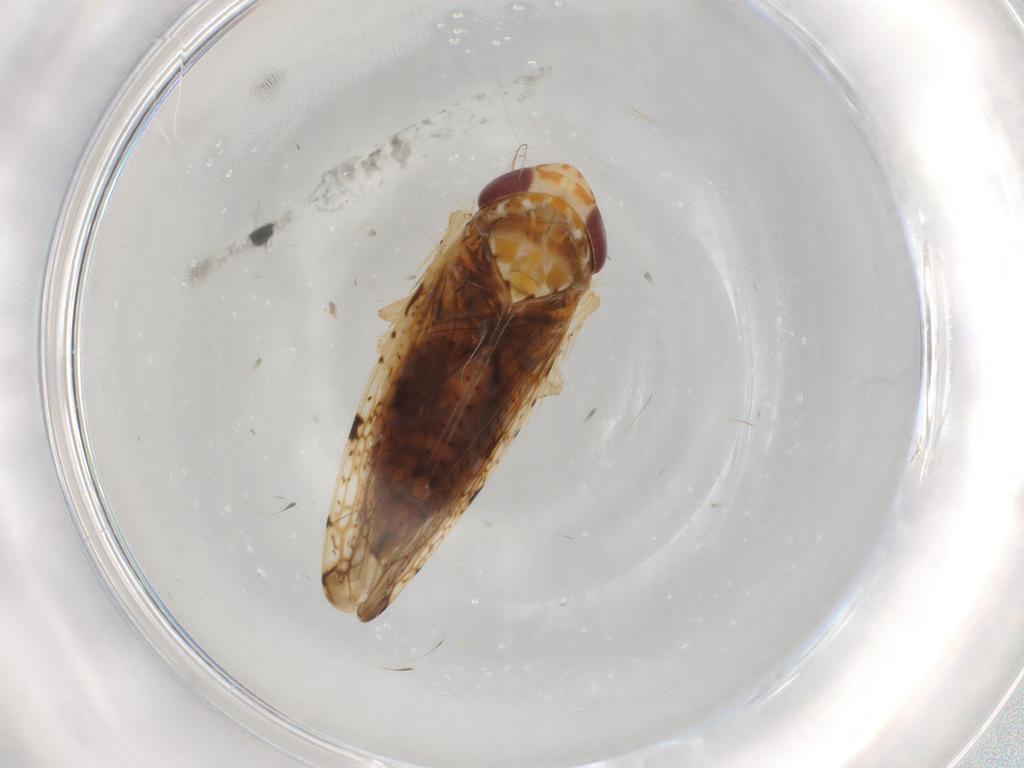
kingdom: Animalia
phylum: Arthropoda
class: Insecta
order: Hemiptera
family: Cicadellidae
